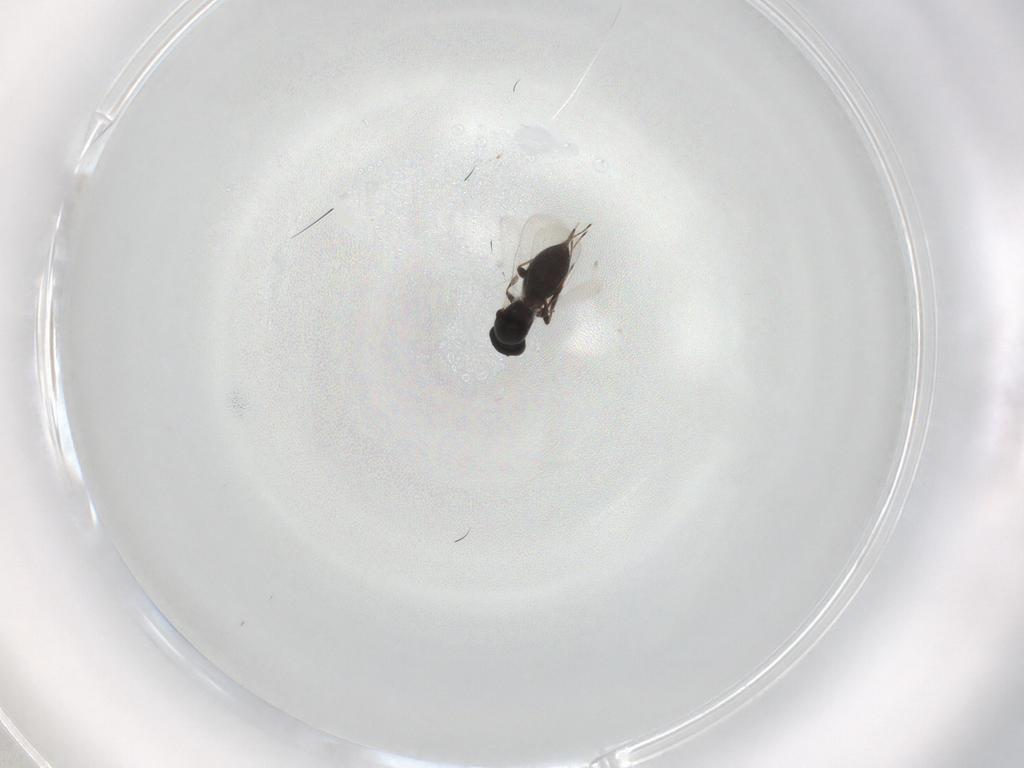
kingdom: Animalia
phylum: Arthropoda
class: Insecta
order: Hymenoptera
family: Platygastridae
